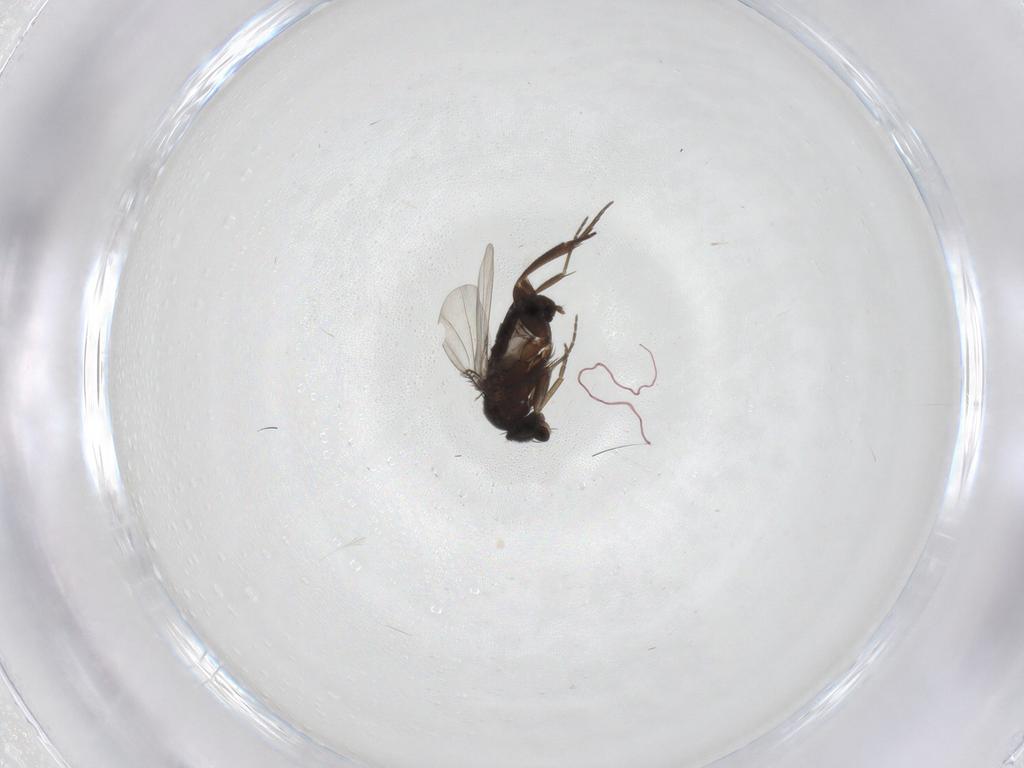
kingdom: Animalia
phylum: Arthropoda
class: Insecta
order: Diptera
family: Phoridae
